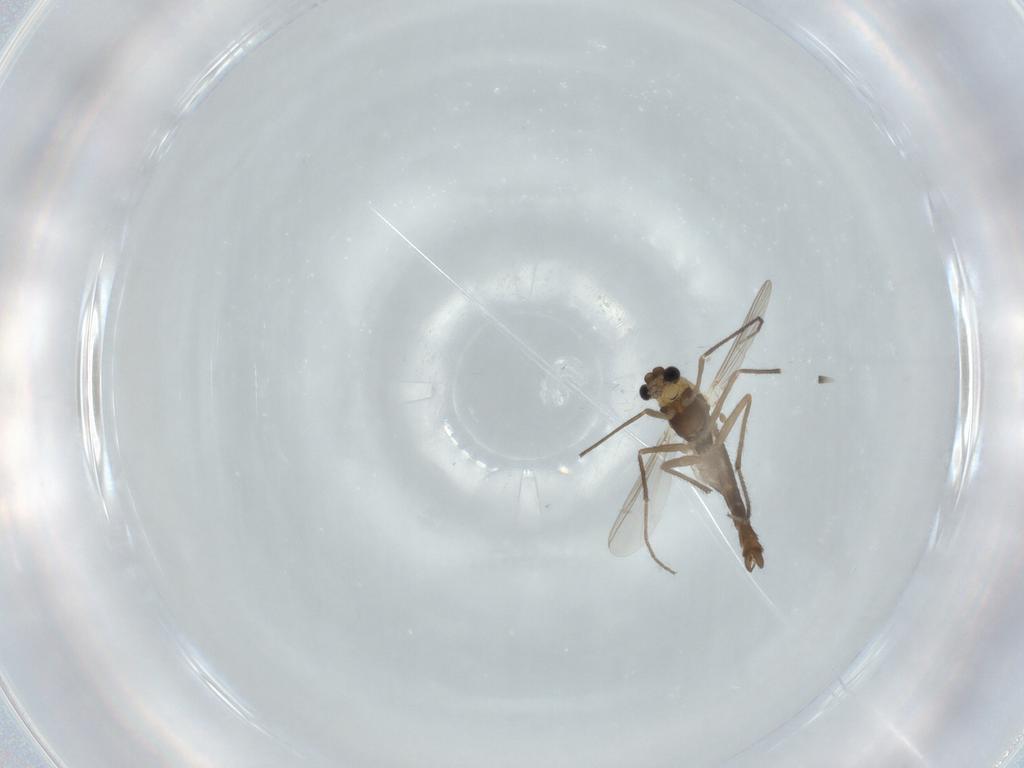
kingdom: Animalia
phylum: Arthropoda
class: Insecta
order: Diptera
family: Chironomidae
